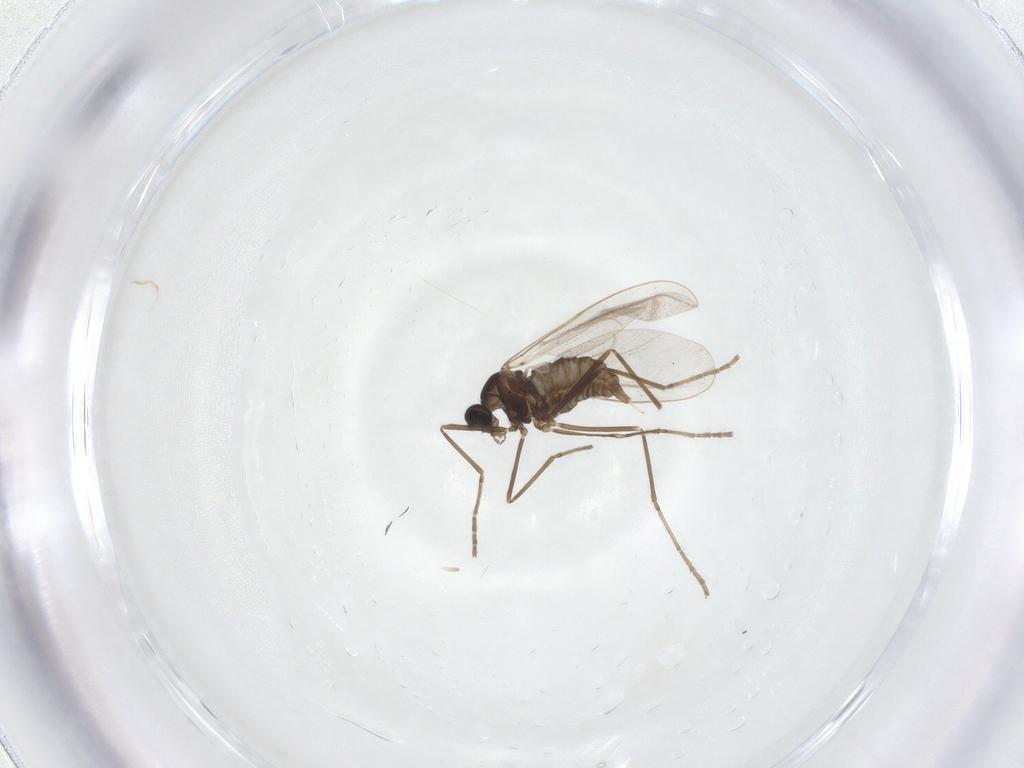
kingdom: Animalia
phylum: Arthropoda
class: Insecta
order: Diptera
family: Cecidomyiidae
